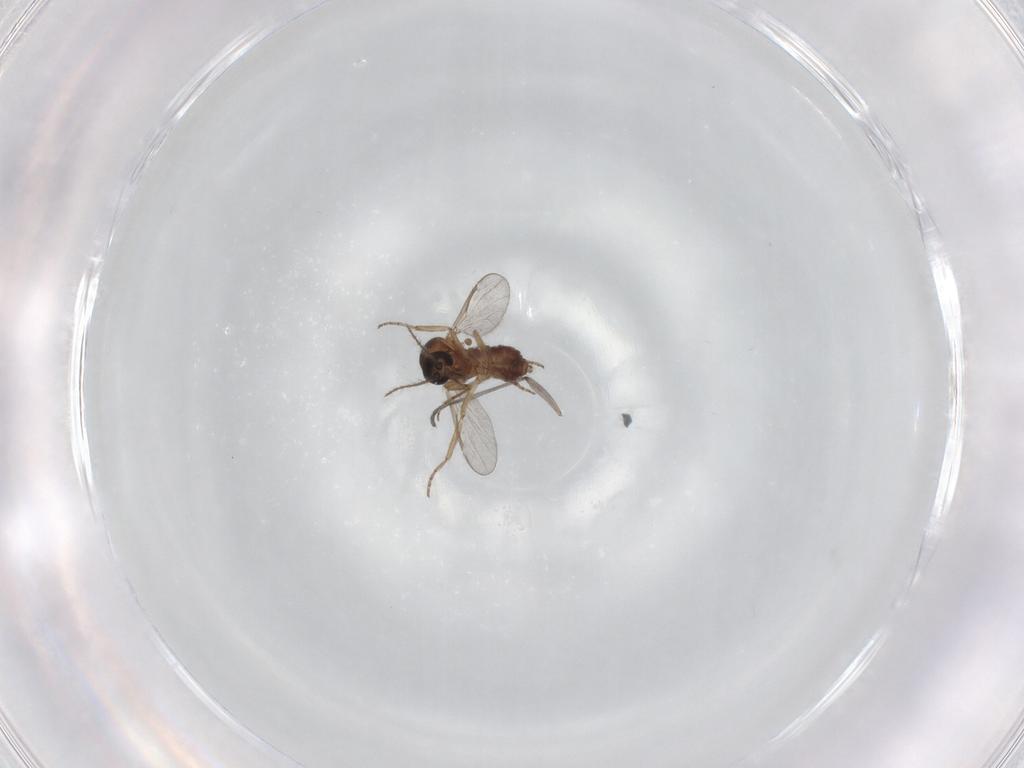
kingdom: Animalia
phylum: Arthropoda
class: Insecta
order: Diptera
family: Sciaridae
